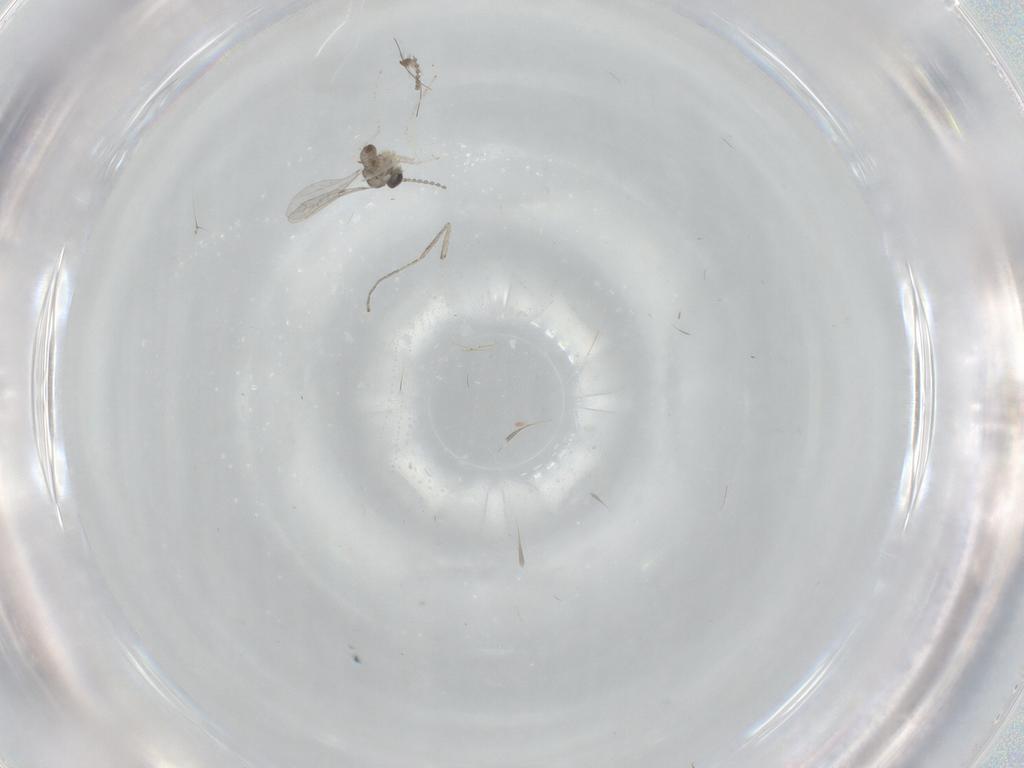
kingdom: Animalia
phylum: Arthropoda
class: Insecta
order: Diptera
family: Cecidomyiidae
